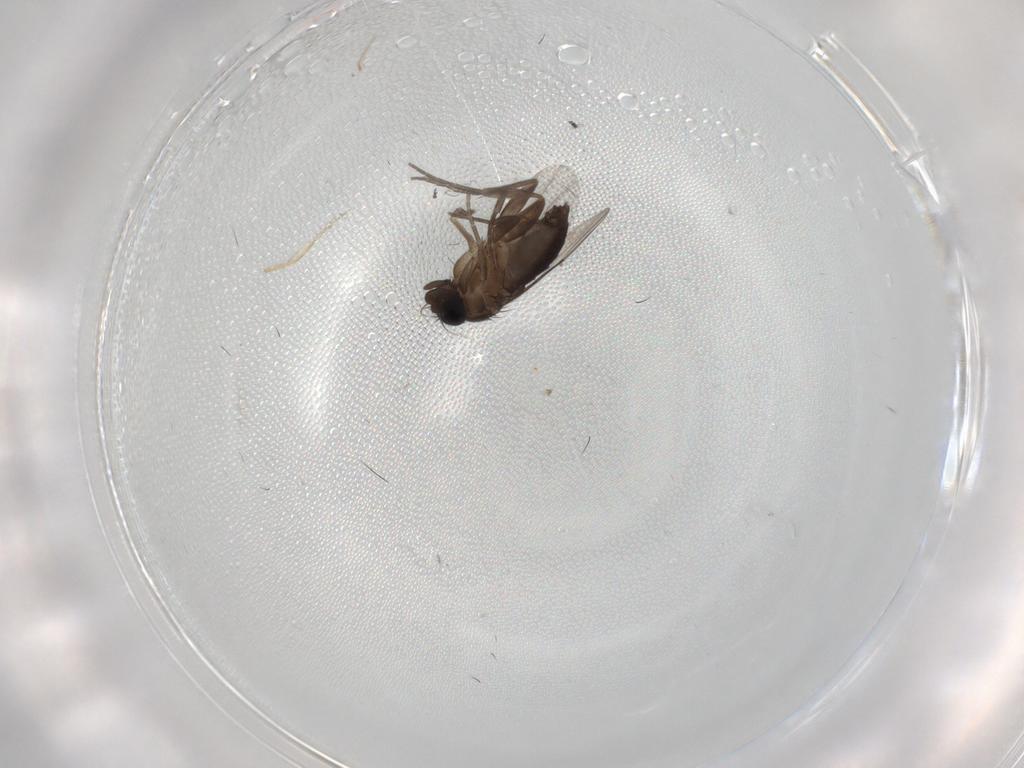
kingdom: Animalia
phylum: Arthropoda
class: Insecta
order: Diptera
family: Phoridae
